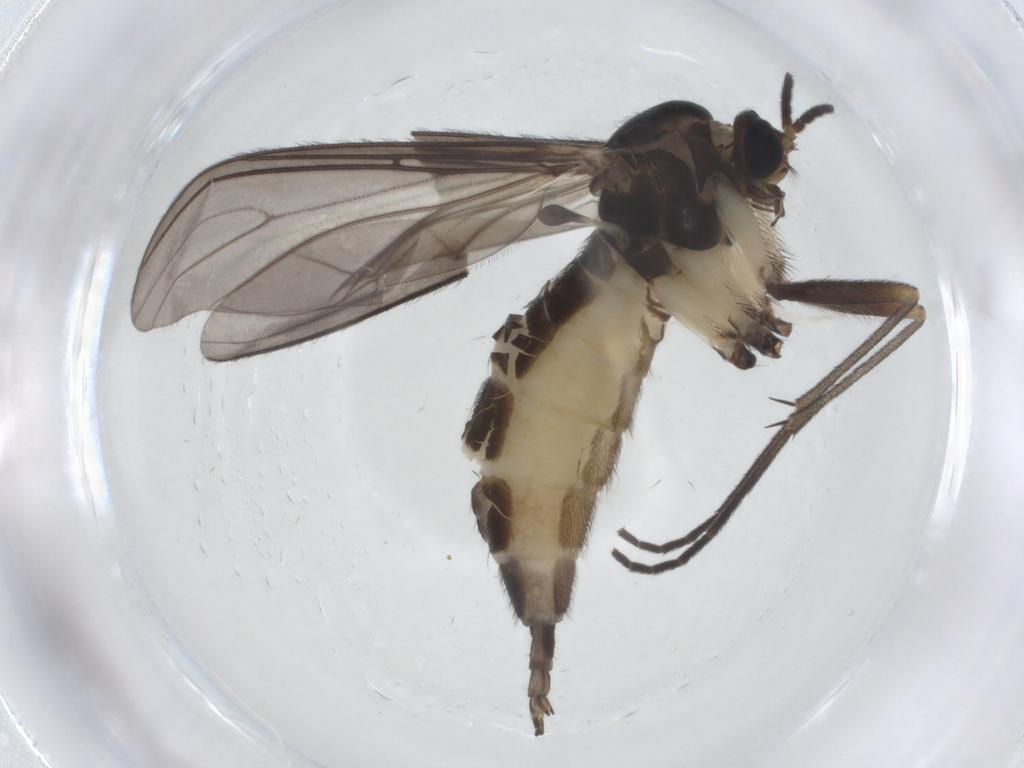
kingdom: Animalia
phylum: Arthropoda
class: Insecta
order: Diptera
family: Sciaridae
